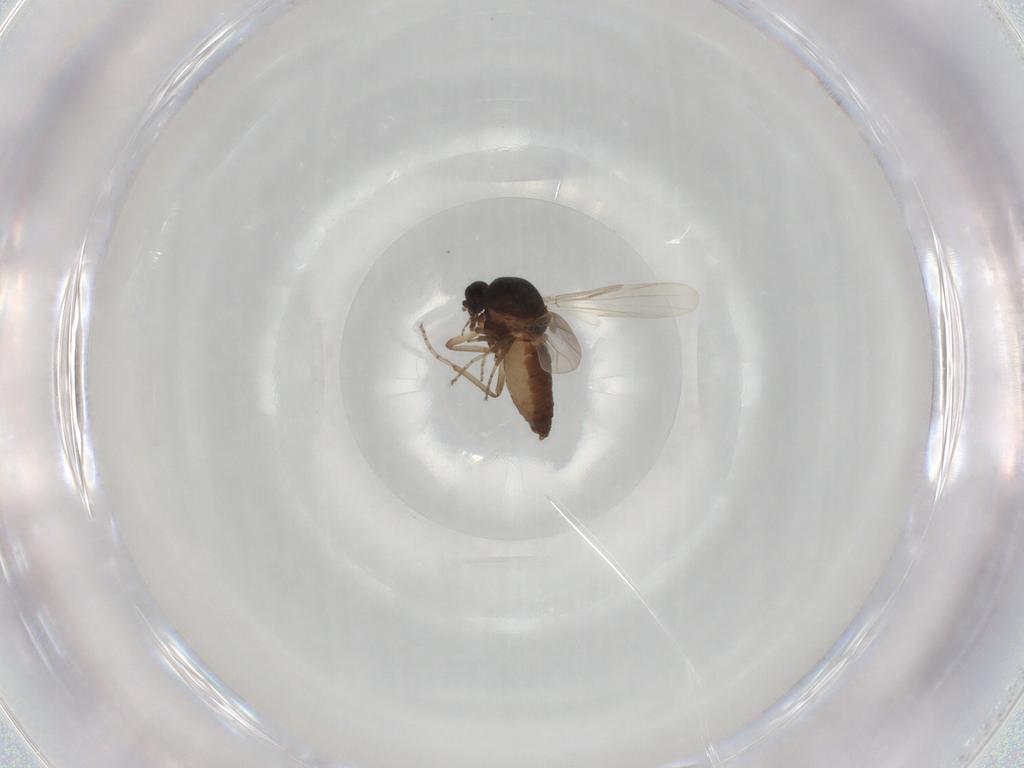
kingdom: Animalia
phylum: Arthropoda
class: Insecta
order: Diptera
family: Ceratopogonidae
